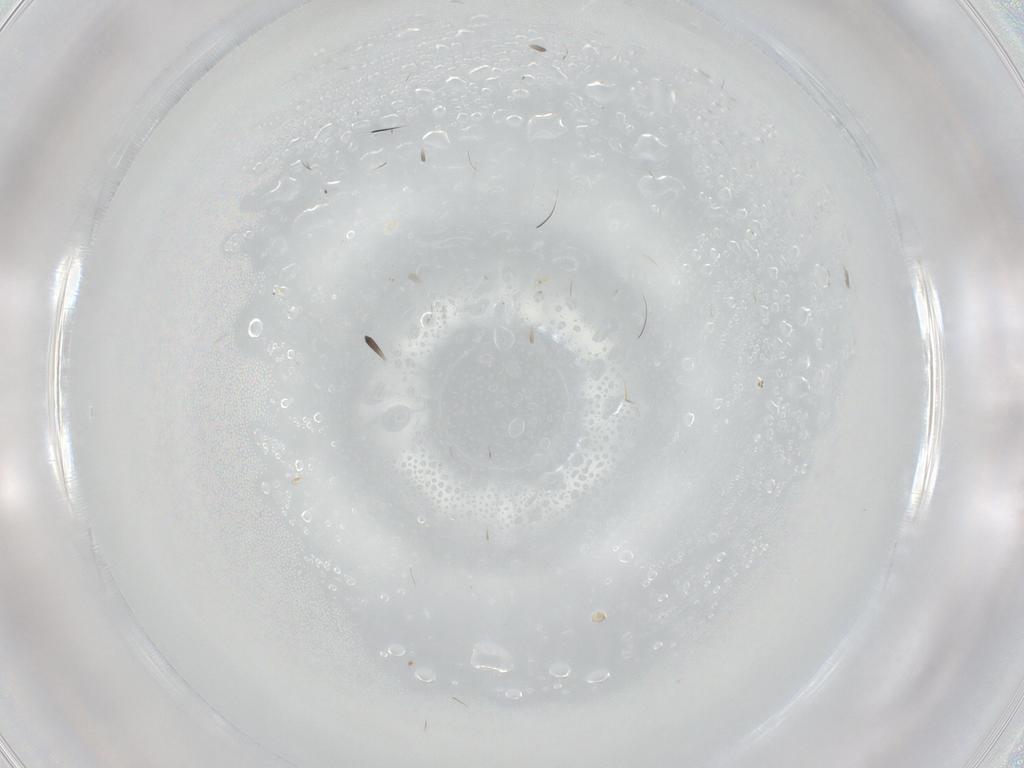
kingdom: Animalia
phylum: Arthropoda
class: Insecta
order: Diptera
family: Cecidomyiidae
